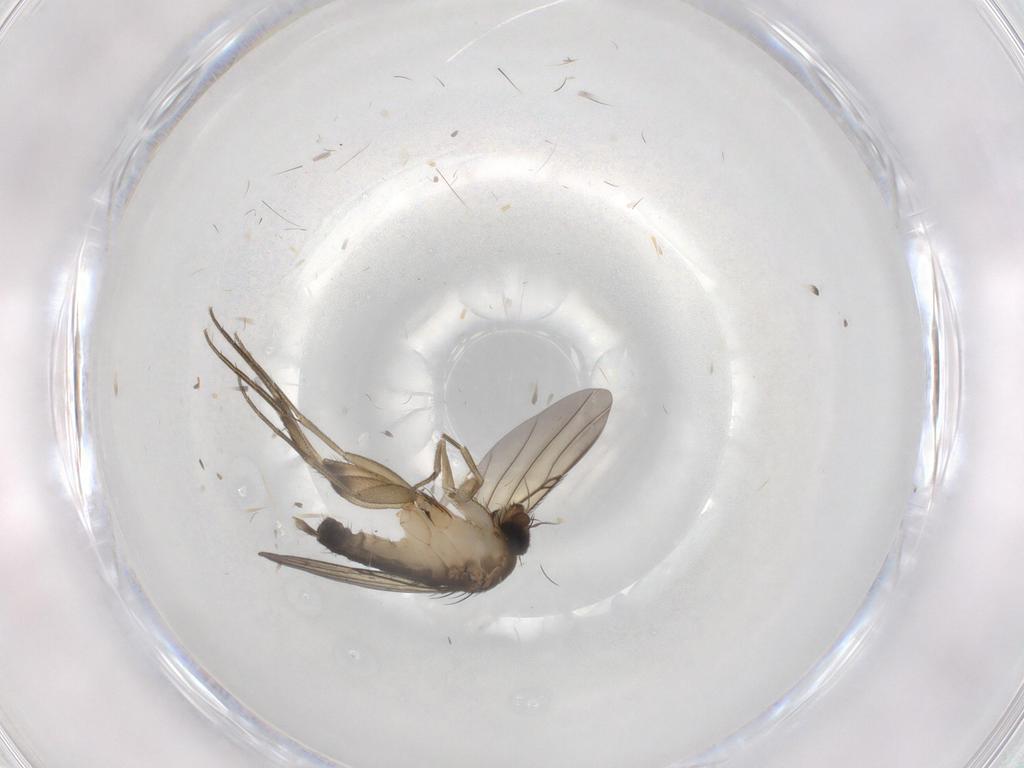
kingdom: Animalia
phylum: Arthropoda
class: Insecta
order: Diptera
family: Phoridae
